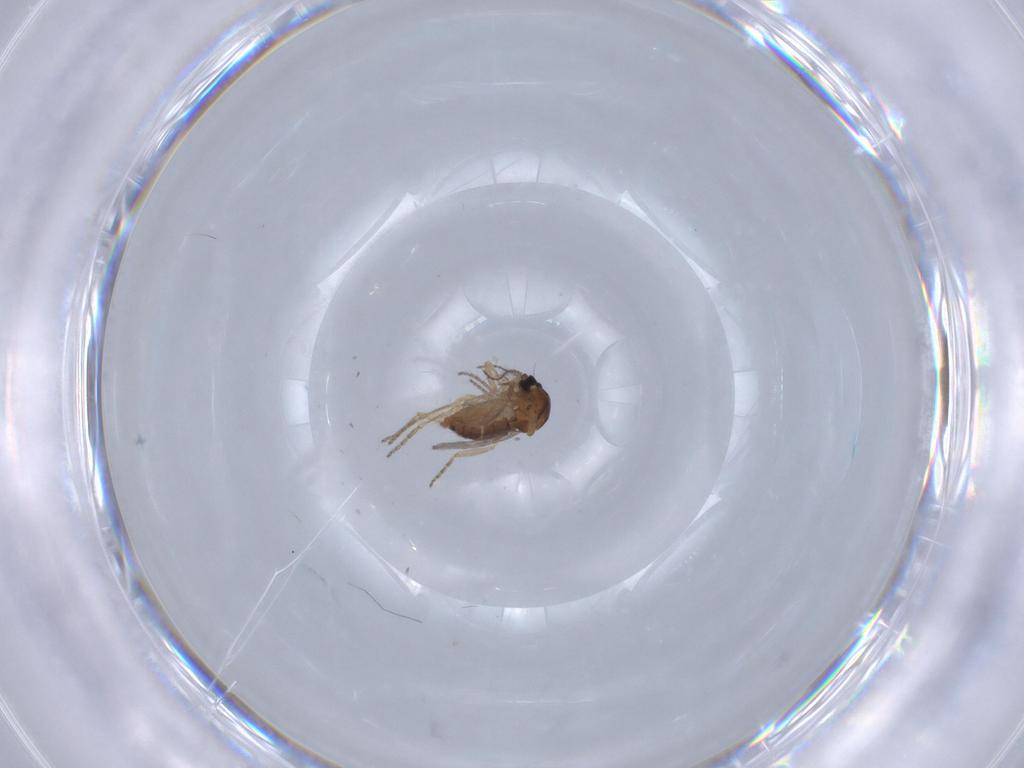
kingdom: Animalia
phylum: Arthropoda
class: Insecta
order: Diptera
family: Ceratopogonidae
